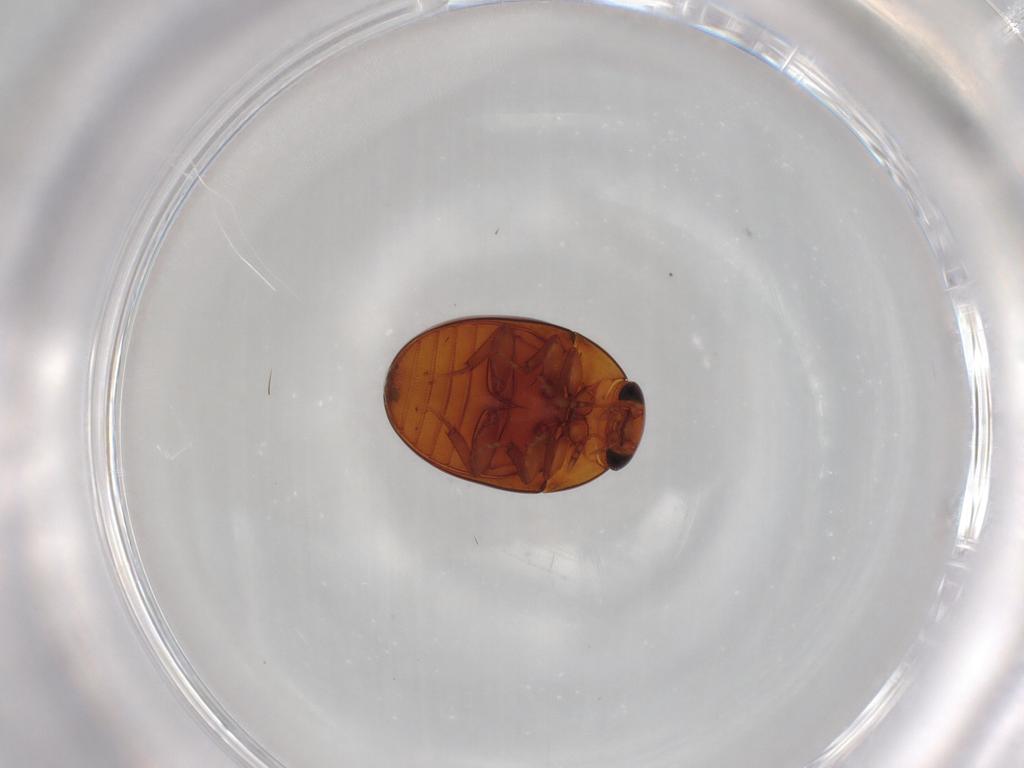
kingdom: Animalia
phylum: Arthropoda
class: Insecta
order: Coleoptera
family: Phalacridae
